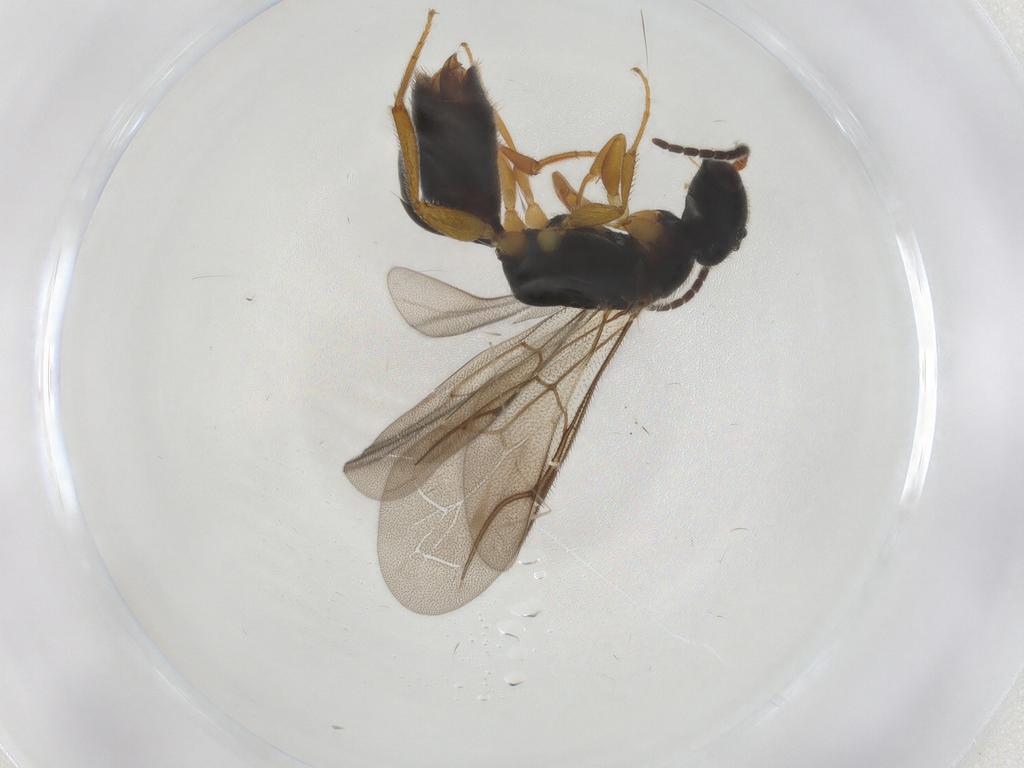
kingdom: Animalia
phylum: Arthropoda
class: Insecta
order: Hymenoptera
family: Bethylidae
